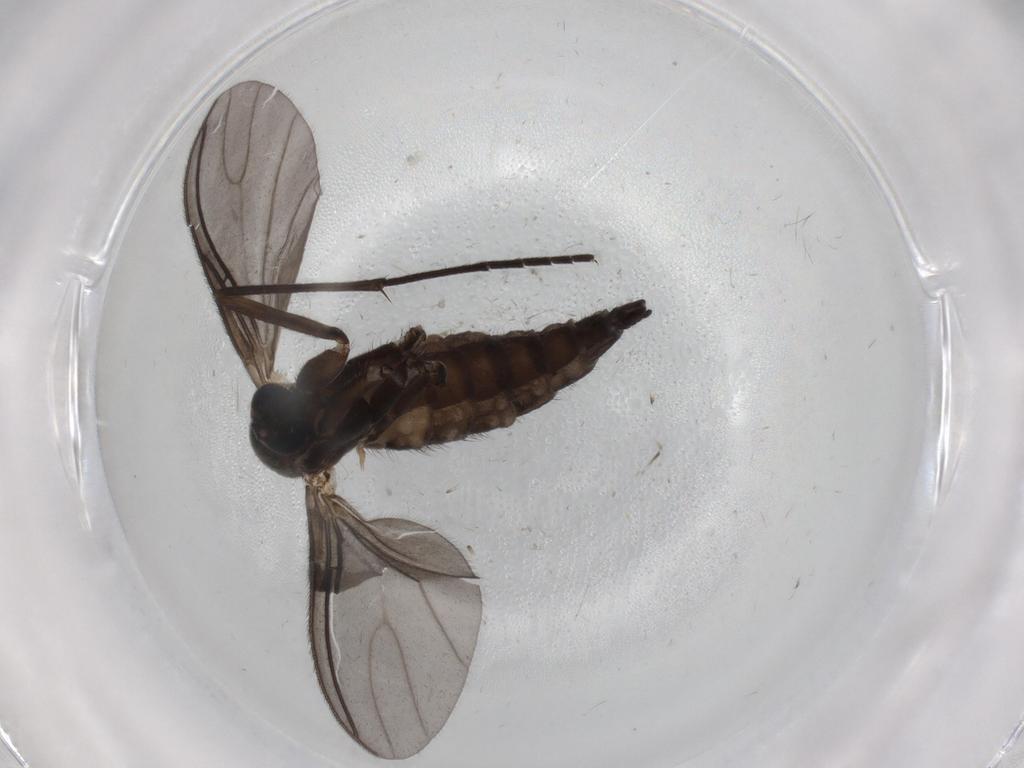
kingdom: Animalia
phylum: Arthropoda
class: Insecta
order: Diptera
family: Sciaridae
